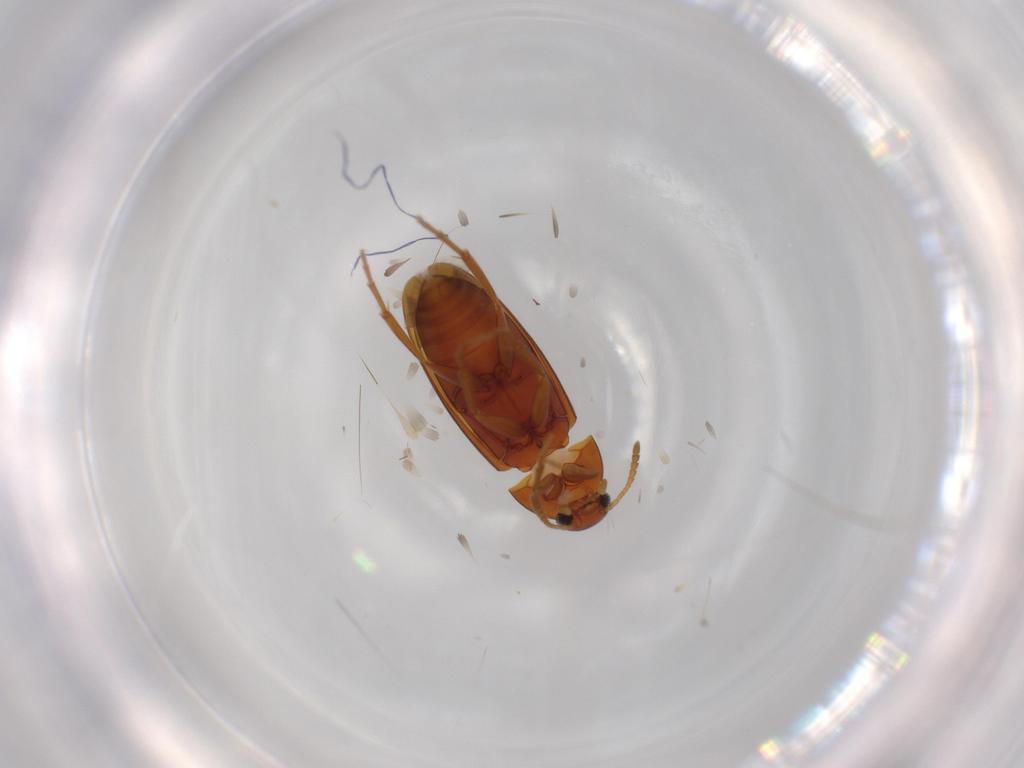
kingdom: Animalia
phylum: Arthropoda
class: Insecta
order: Coleoptera
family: Scraptiidae
